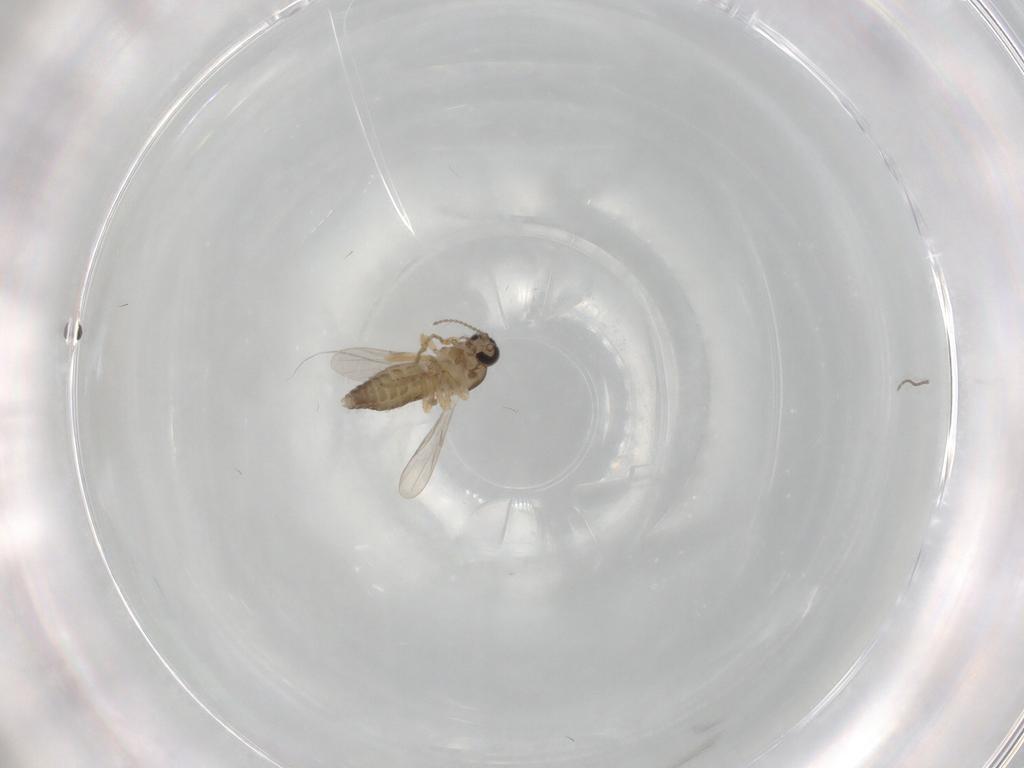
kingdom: Animalia
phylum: Arthropoda
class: Insecta
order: Diptera
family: Ceratopogonidae
